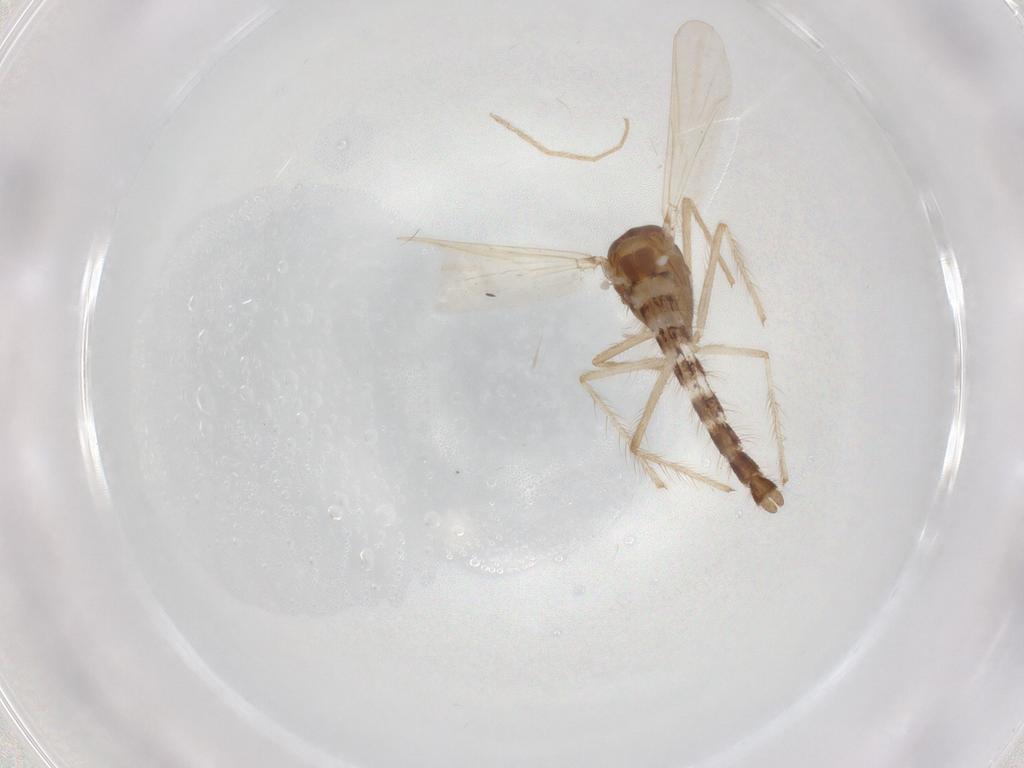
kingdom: Animalia
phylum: Arthropoda
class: Insecta
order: Diptera
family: Chironomidae
